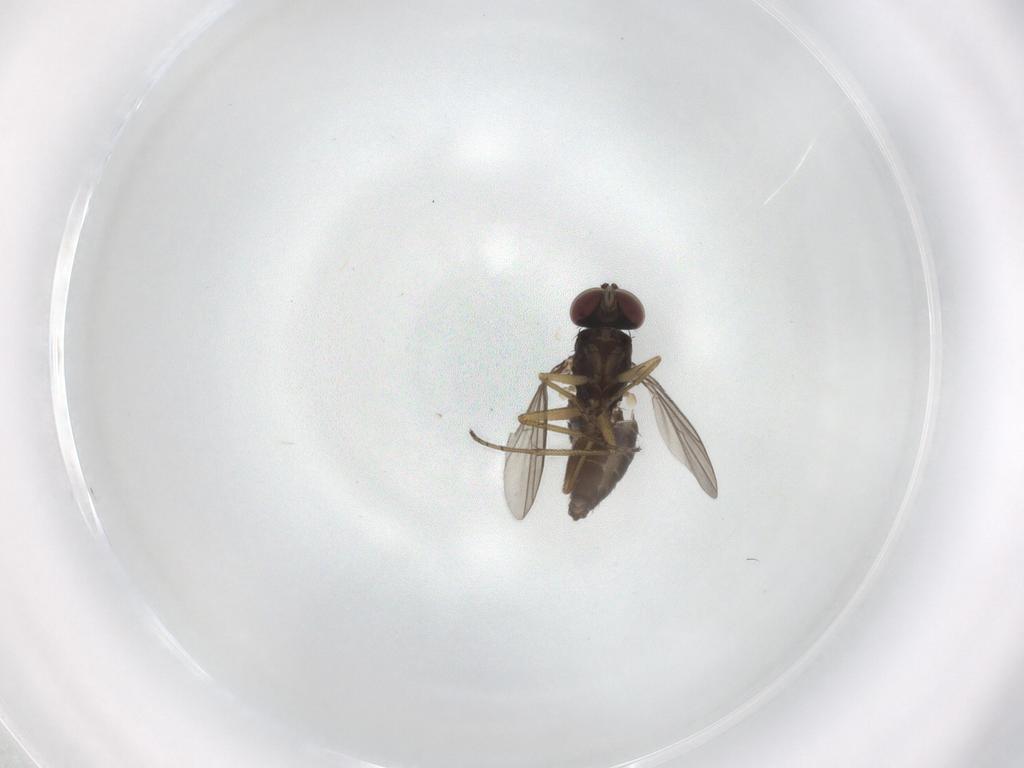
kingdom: Animalia
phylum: Arthropoda
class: Insecta
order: Diptera
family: Dolichopodidae
